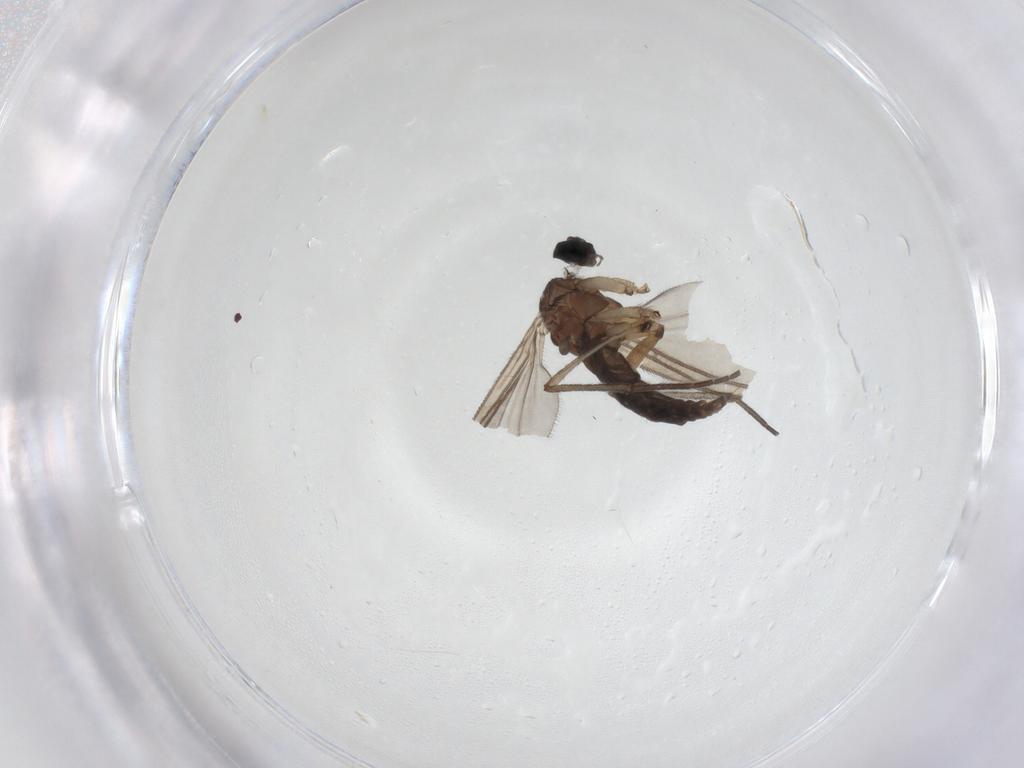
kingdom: Animalia
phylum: Arthropoda
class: Insecta
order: Diptera
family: Sciaridae
